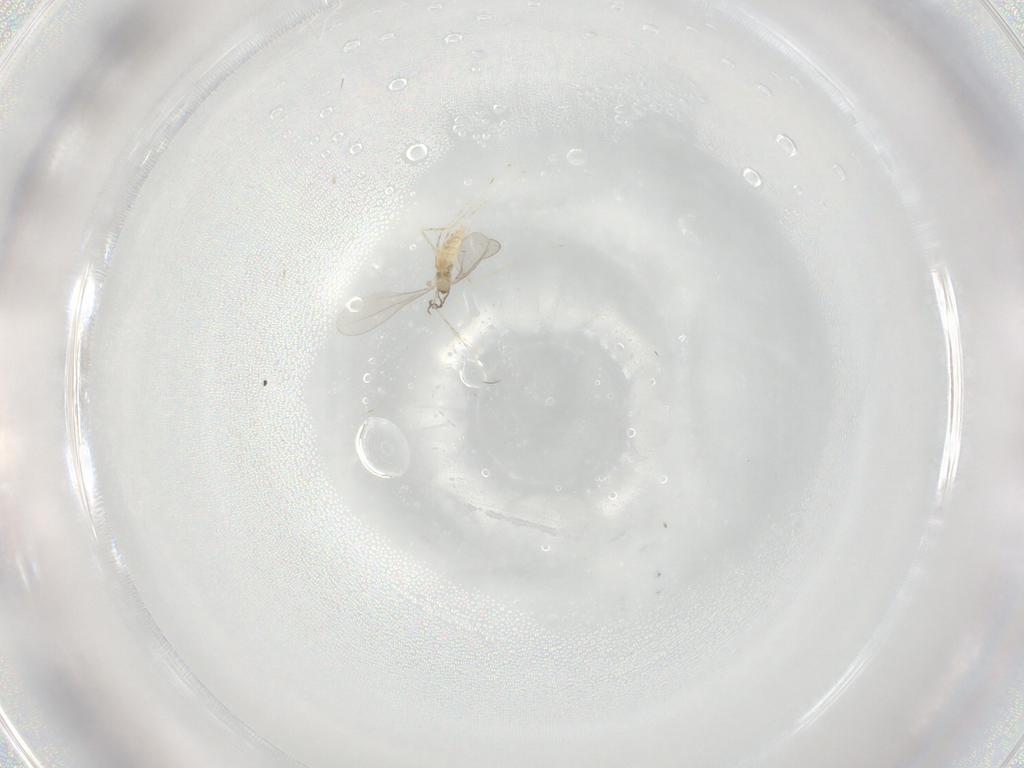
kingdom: Animalia
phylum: Arthropoda
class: Insecta
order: Diptera
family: Cecidomyiidae
